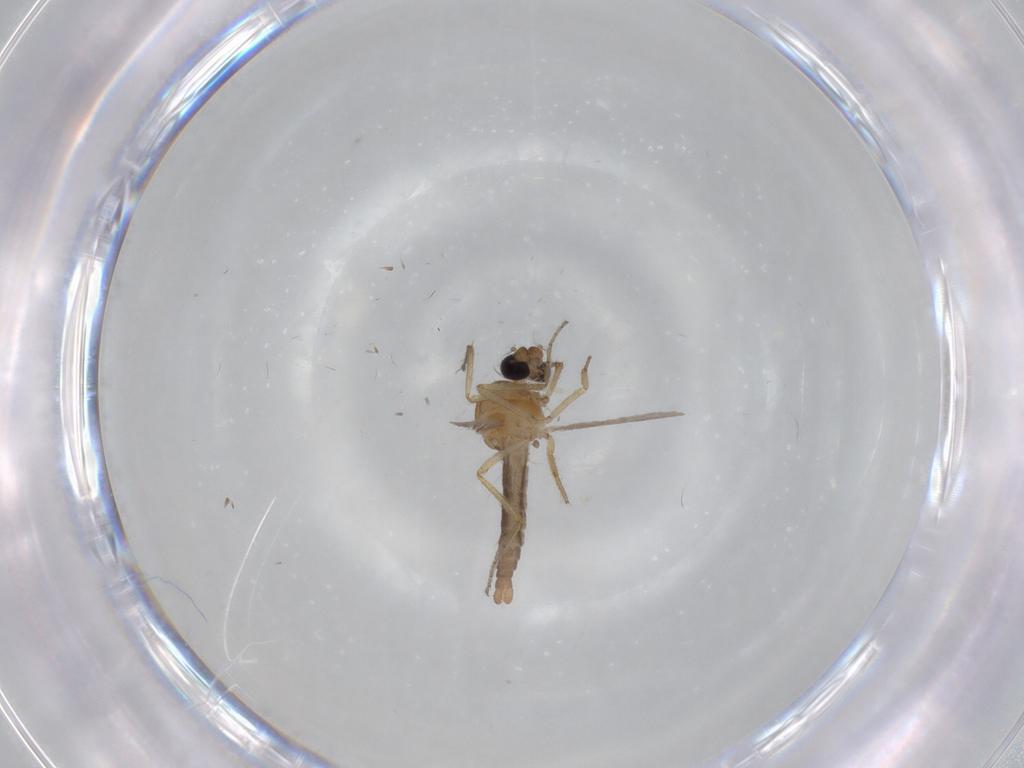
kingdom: Animalia
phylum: Arthropoda
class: Insecta
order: Diptera
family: Ceratopogonidae
